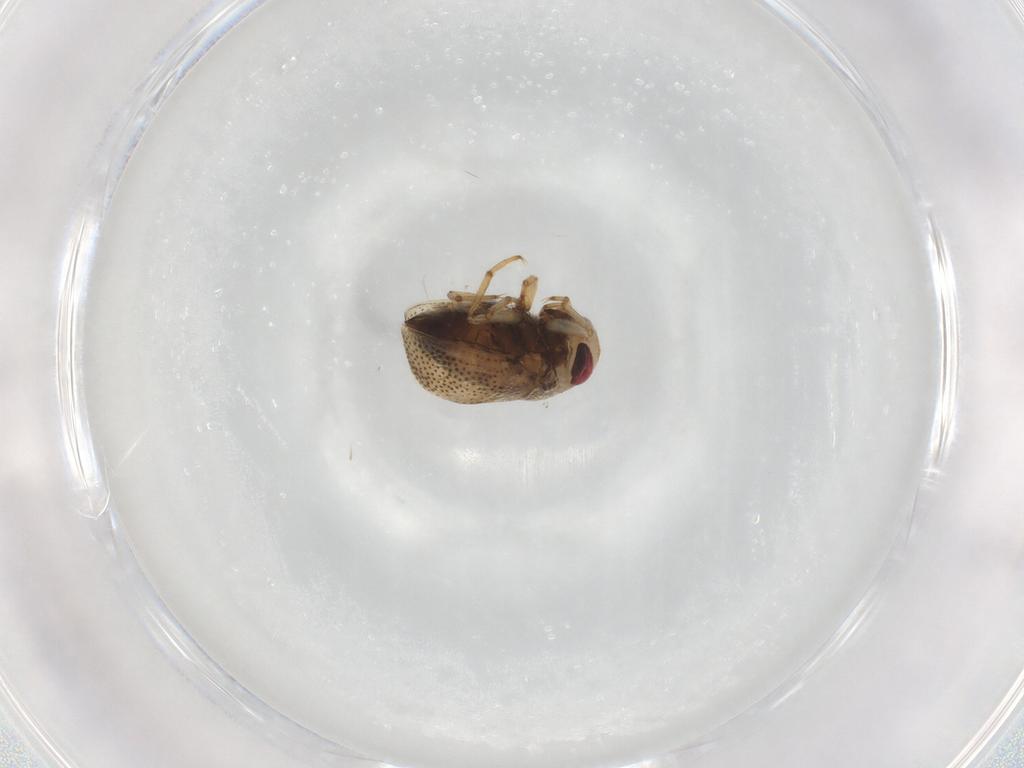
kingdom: Animalia
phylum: Arthropoda
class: Insecta
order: Hemiptera
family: Pleidae
